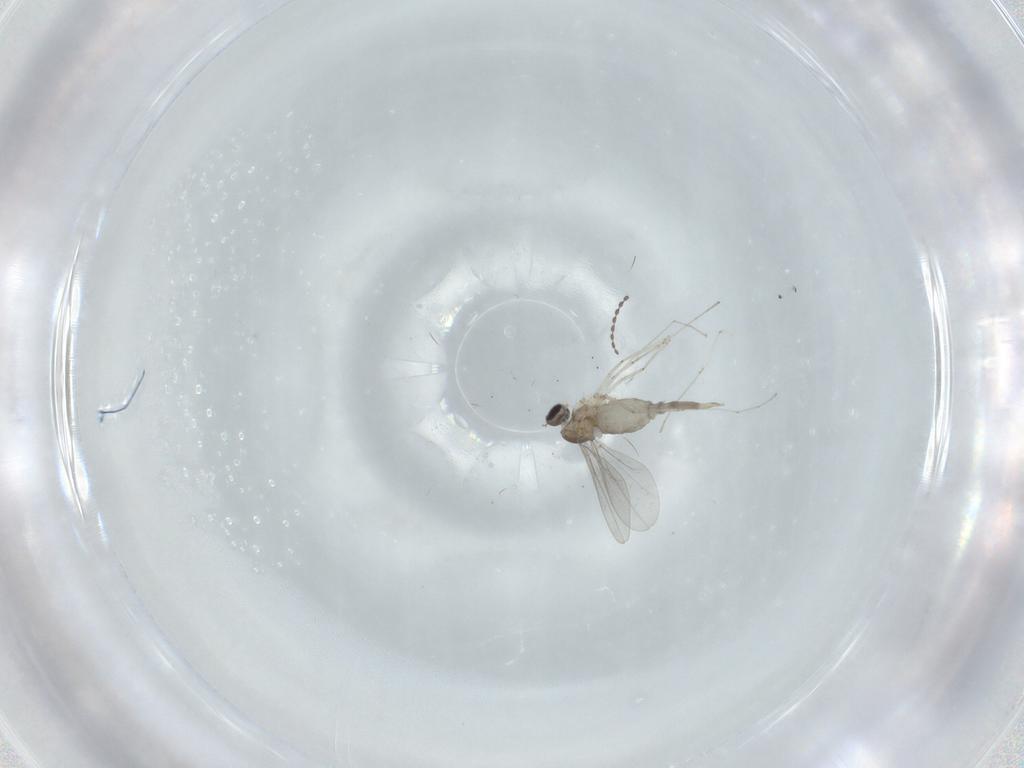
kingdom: Animalia
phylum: Arthropoda
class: Insecta
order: Diptera
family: Cecidomyiidae
